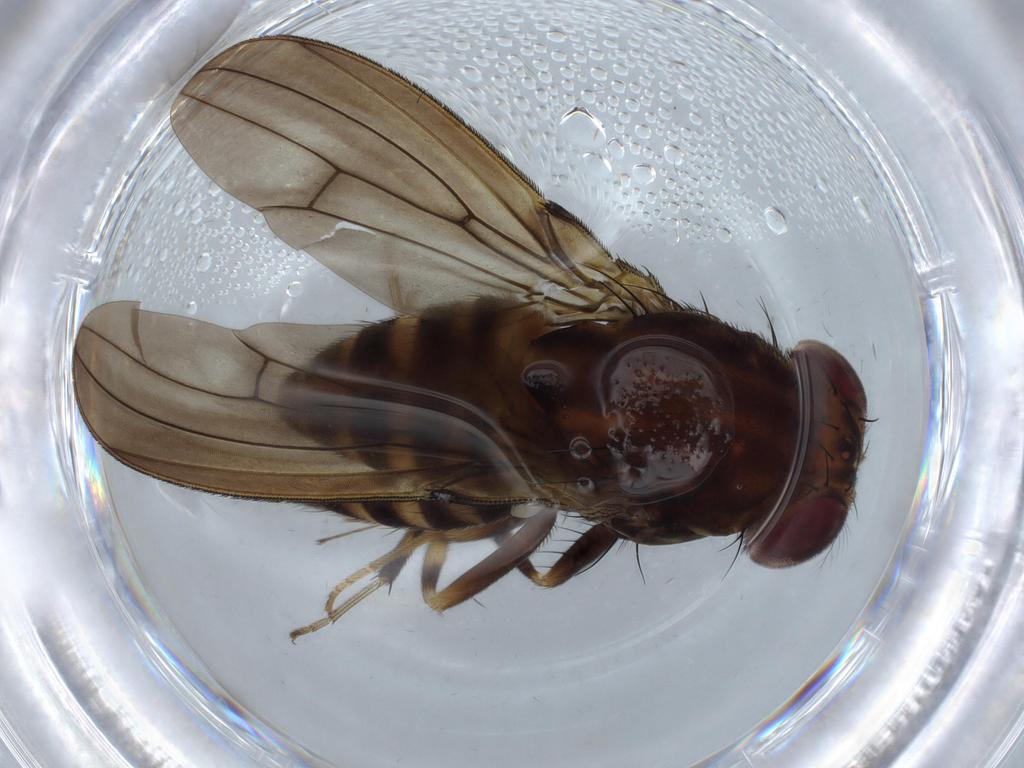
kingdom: Animalia
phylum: Arthropoda
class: Insecta
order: Diptera
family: Drosophilidae
